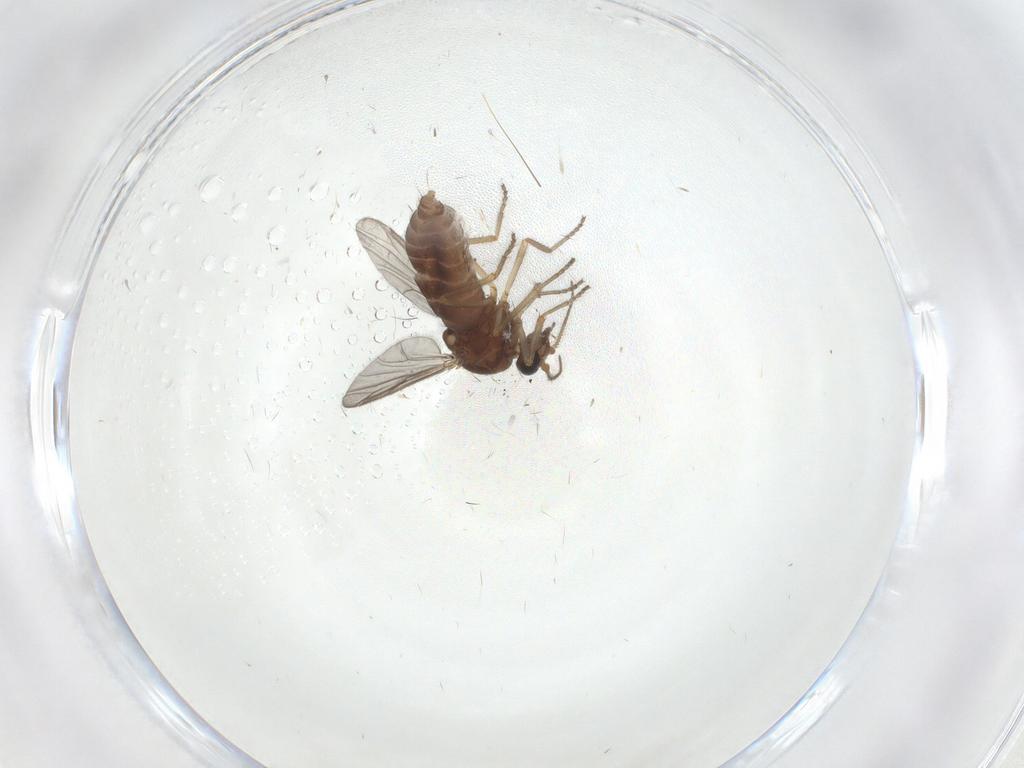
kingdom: Animalia
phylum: Arthropoda
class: Insecta
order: Diptera
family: Ceratopogonidae
